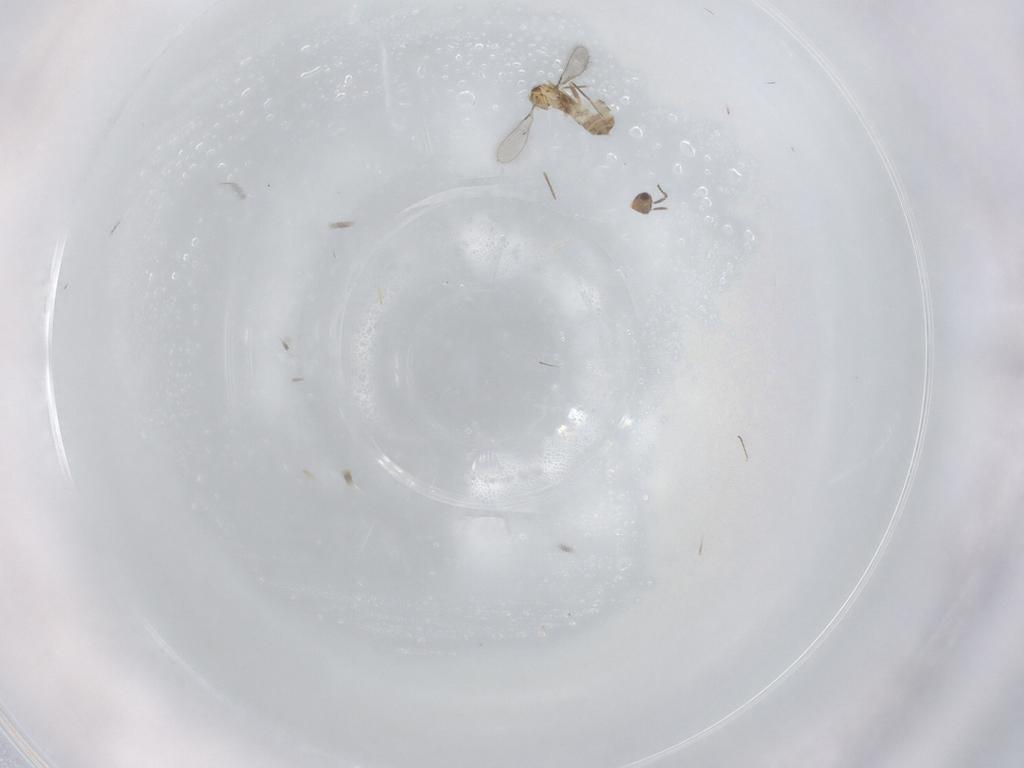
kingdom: Animalia
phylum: Arthropoda
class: Insecta
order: Hymenoptera
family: Mymaridae
